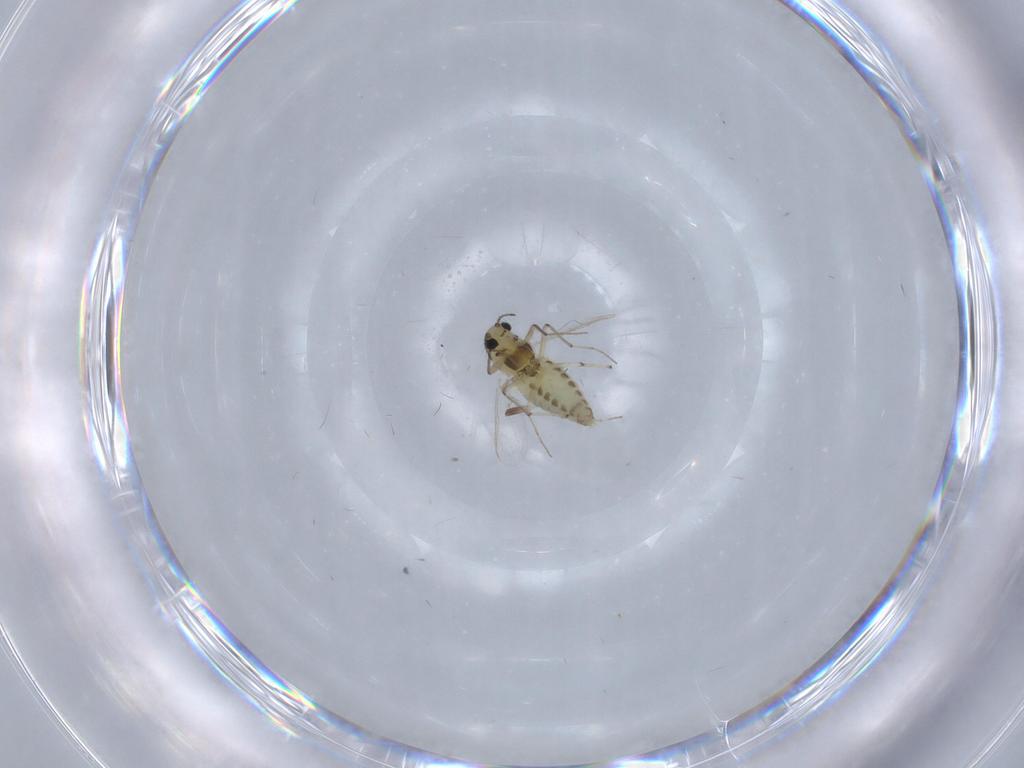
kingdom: Animalia
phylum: Arthropoda
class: Insecta
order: Diptera
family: Chironomidae
